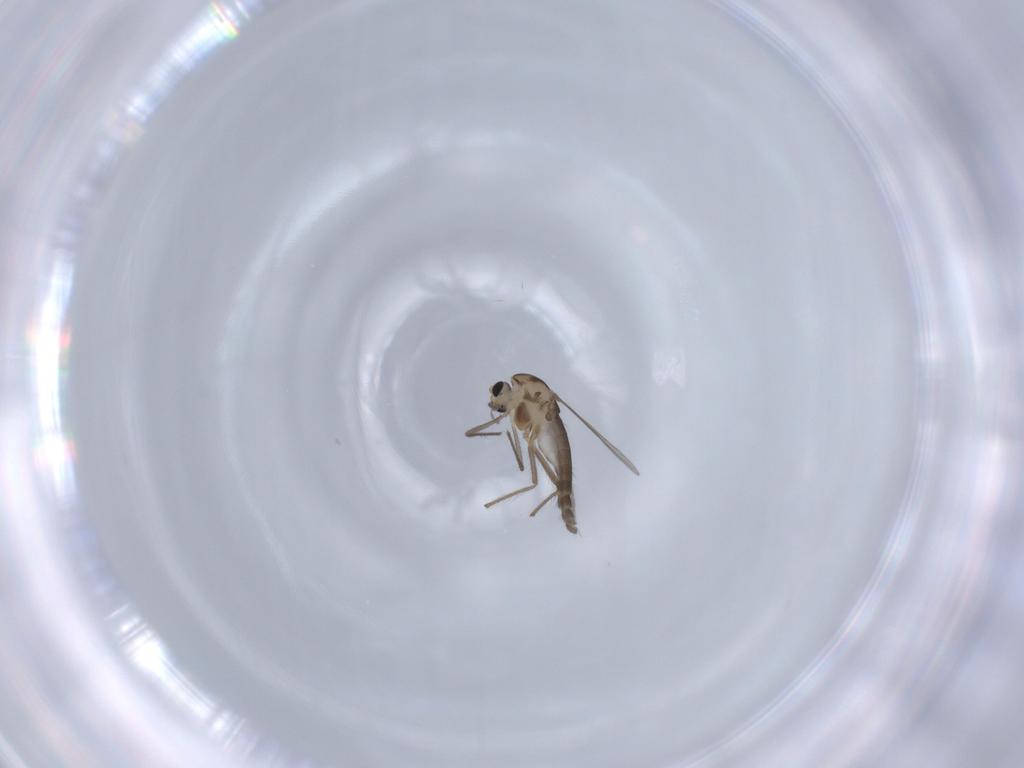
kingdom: Animalia
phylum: Arthropoda
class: Insecta
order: Diptera
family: Chironomidae
